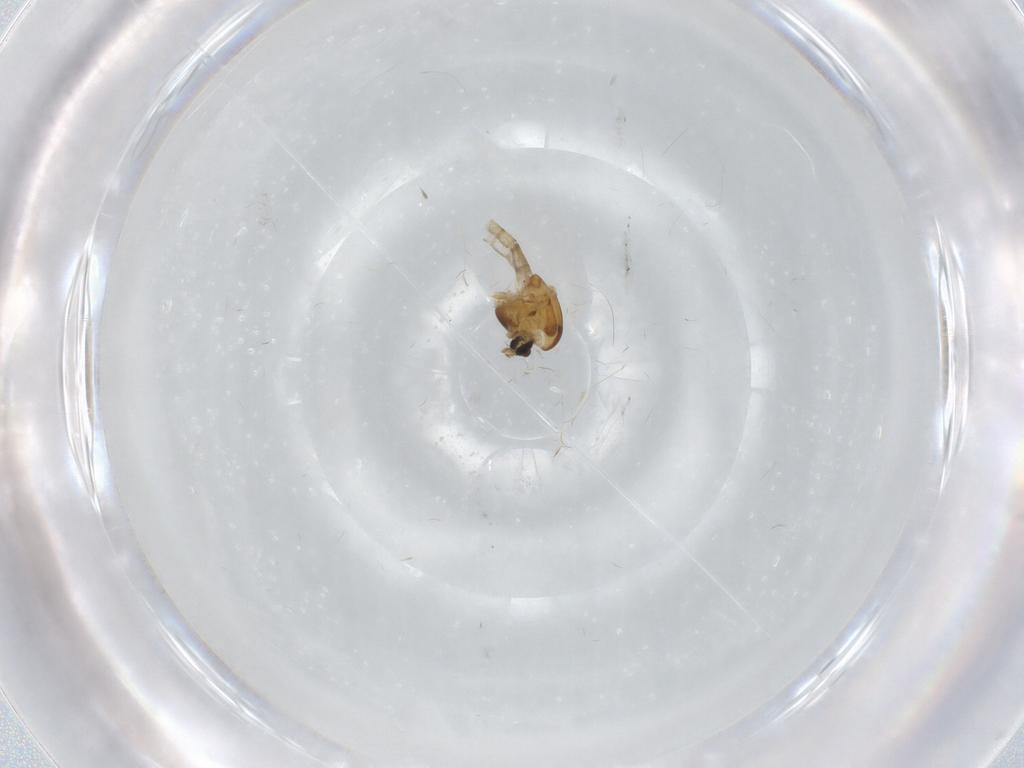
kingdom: Animalia
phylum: Arthropoda
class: Insecta
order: Diptera
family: Chironomidae
